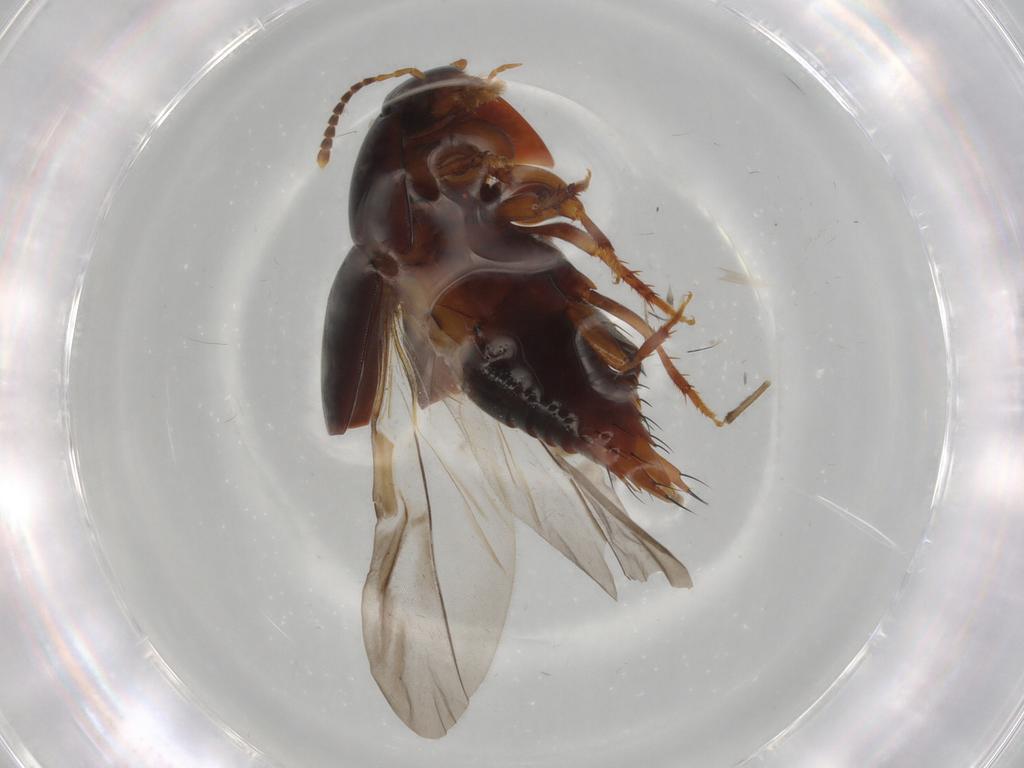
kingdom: Animalia
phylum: Arthropoda
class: Insecta
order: Coleoptera
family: Staphylinidae
